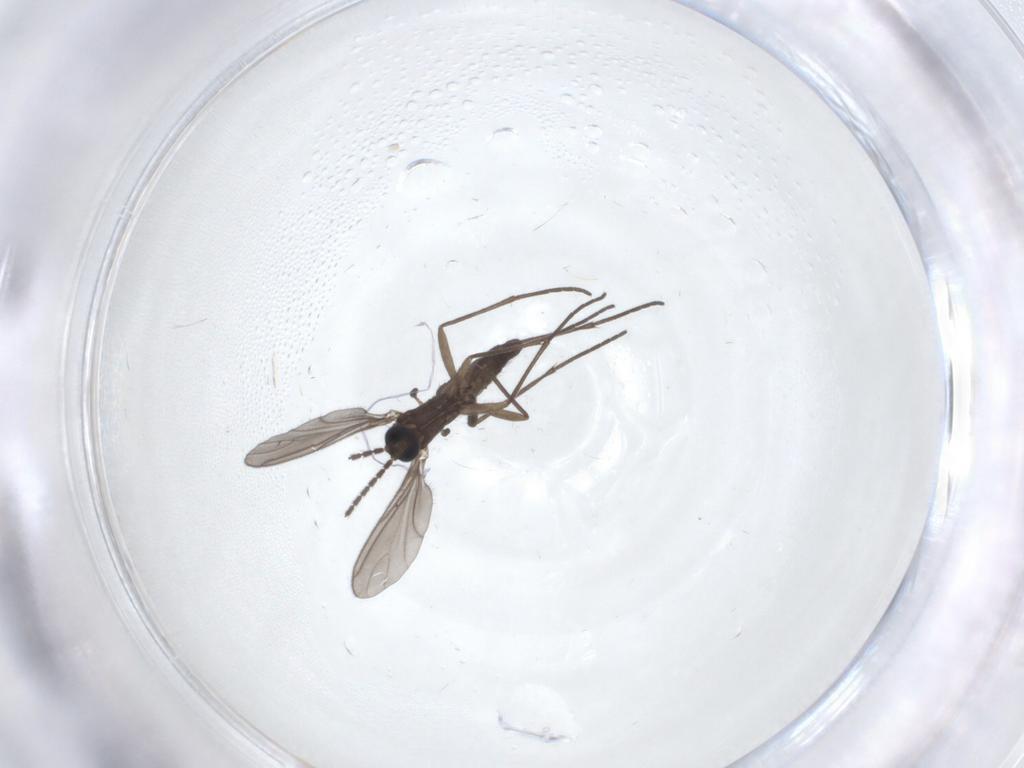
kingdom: Animalia
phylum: Arthropoda
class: Insecta
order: Diptera
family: Sciaridae
